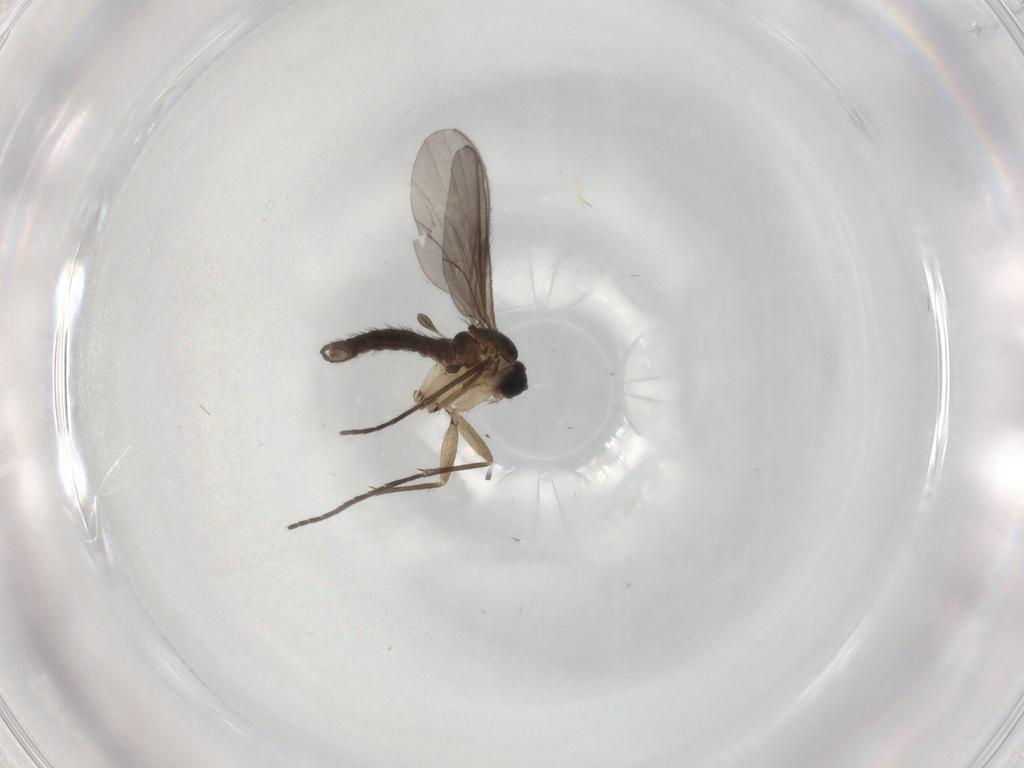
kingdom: Animalia
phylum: Arthropoda
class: Insecta
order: Diptera
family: Sciaridae
